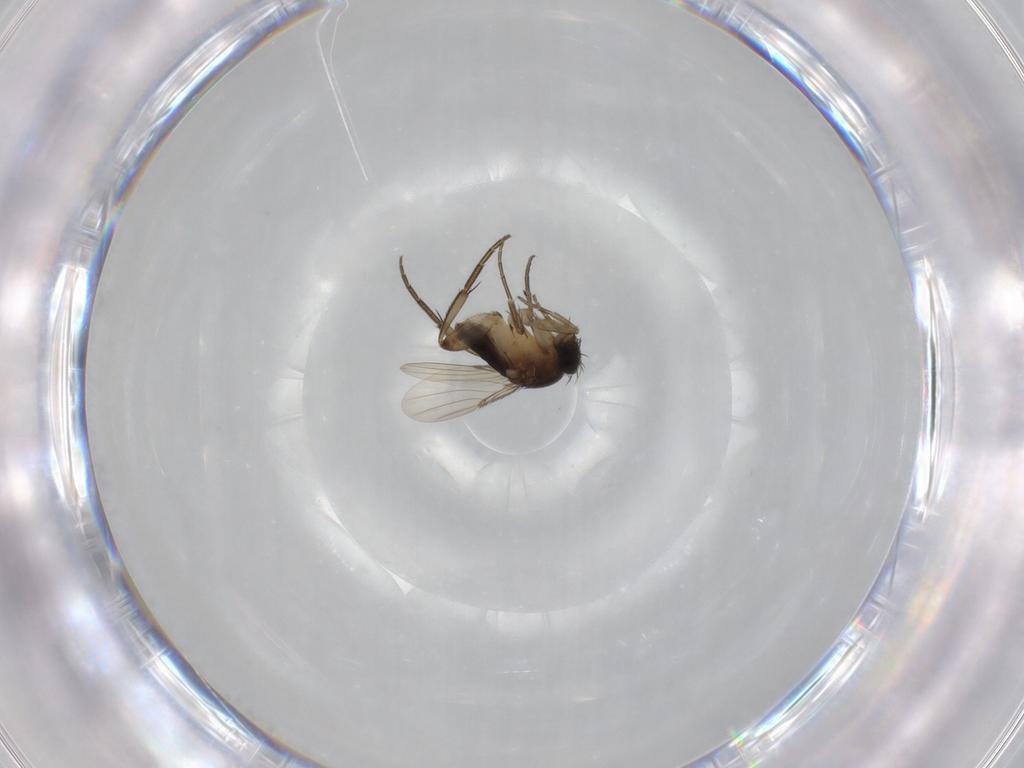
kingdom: Animalia
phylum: Arthropoda
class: Insecta
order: Diptera
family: Phoridae
